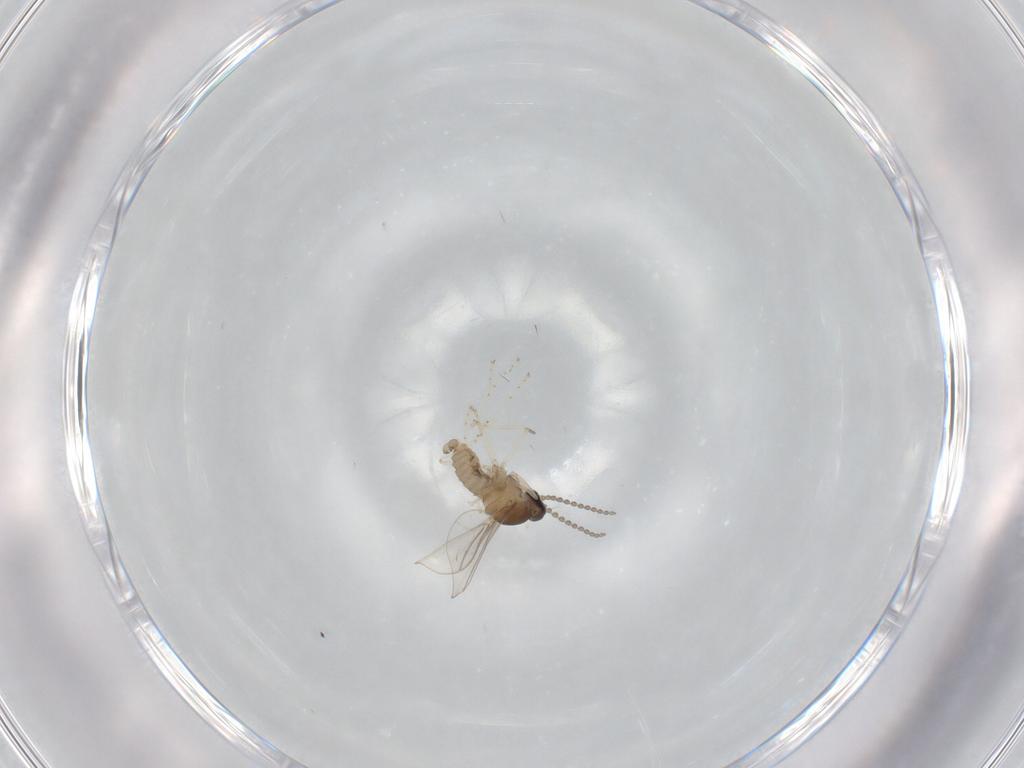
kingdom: Animalia
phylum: Arthropoda
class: Insecta
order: Diptera
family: Cecidomyiidae
